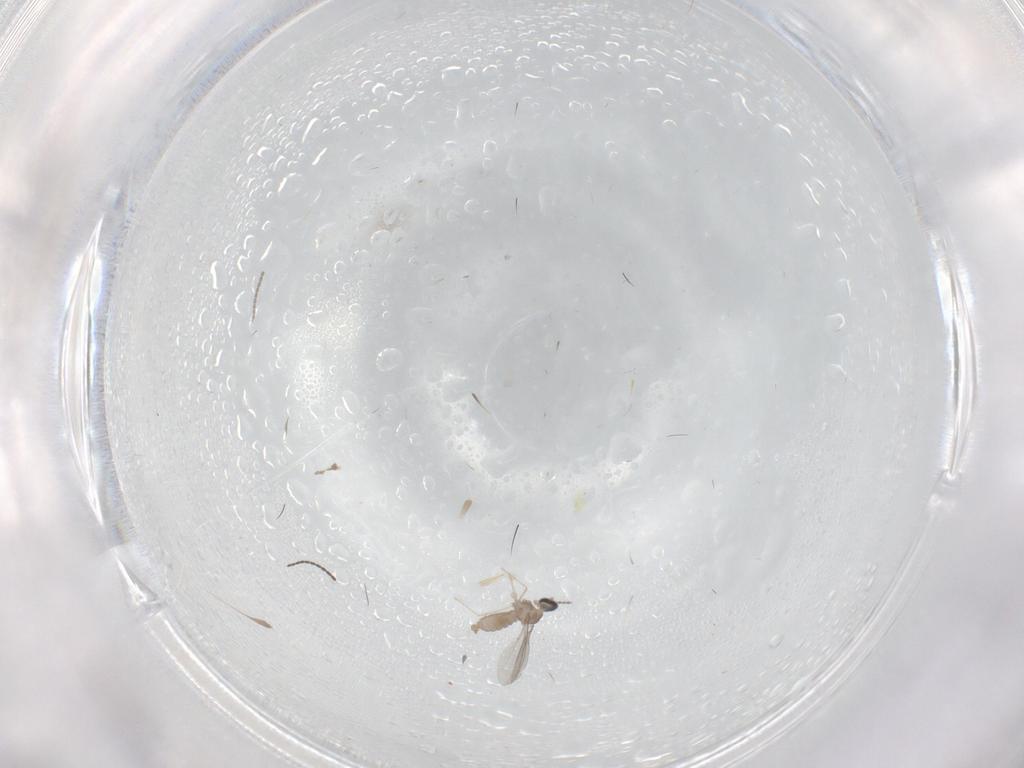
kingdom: Animalia
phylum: Arthropoda
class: Insecta
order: Diptera
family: Cecidomyiidae
